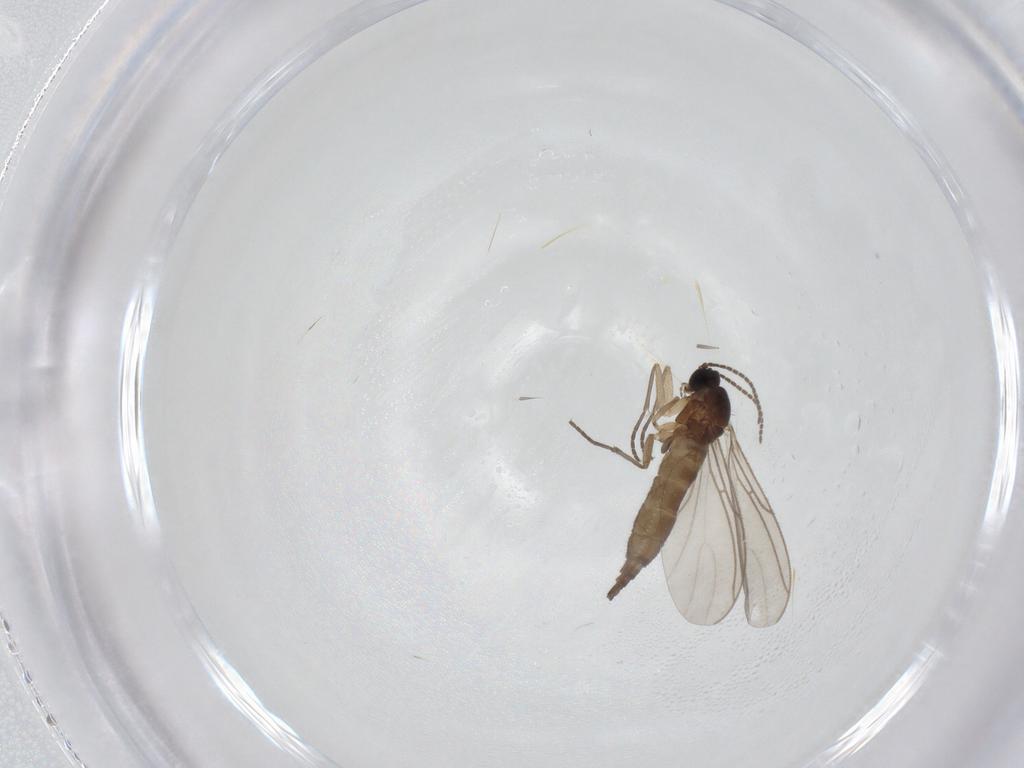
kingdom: Animalia
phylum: Arthropoda
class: Insecta
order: Diptera
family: Sciaridae
